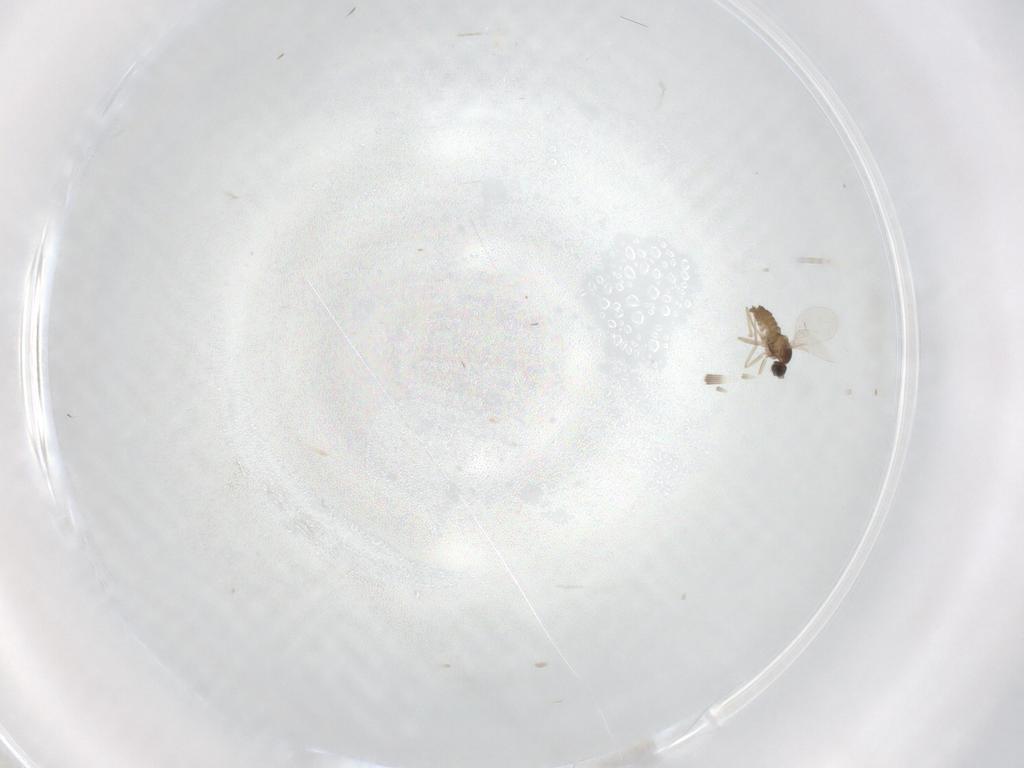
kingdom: Animalia
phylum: Arthropoda
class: Insecta
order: Diptera
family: Cecidomyiidae
